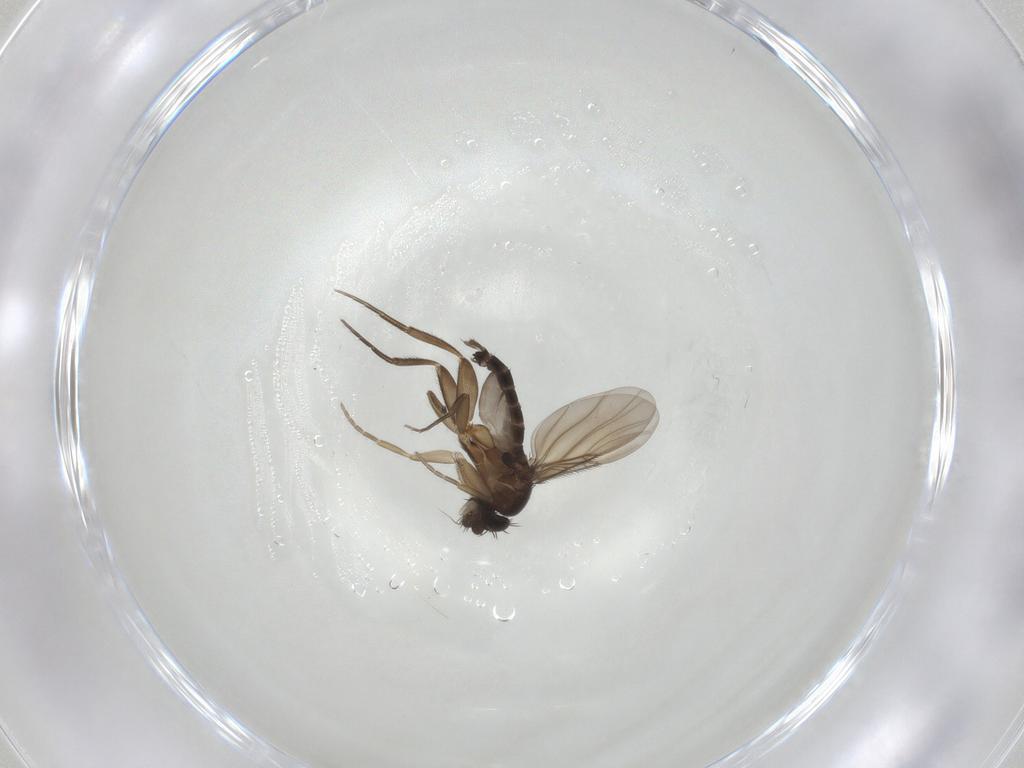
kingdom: Animalia
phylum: Arthropoda
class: Insecta
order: Diptera
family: Phoridae
